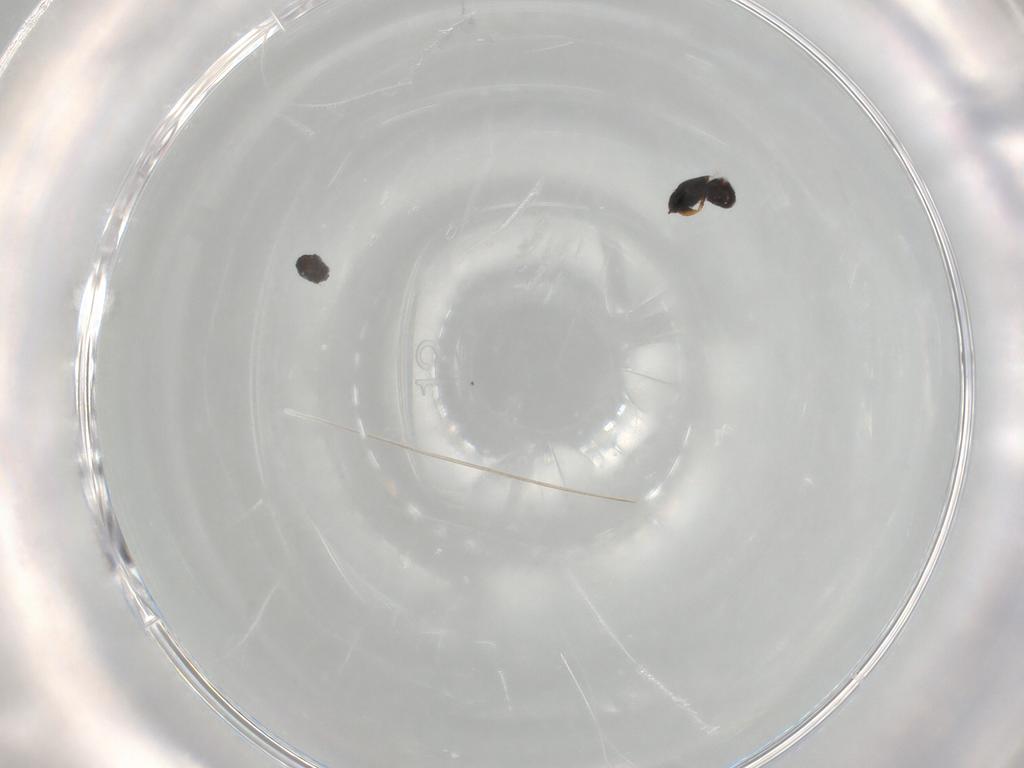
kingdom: Animalia
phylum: Arthropoda
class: Insecta
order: Hymenoptera
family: Mymaridae
